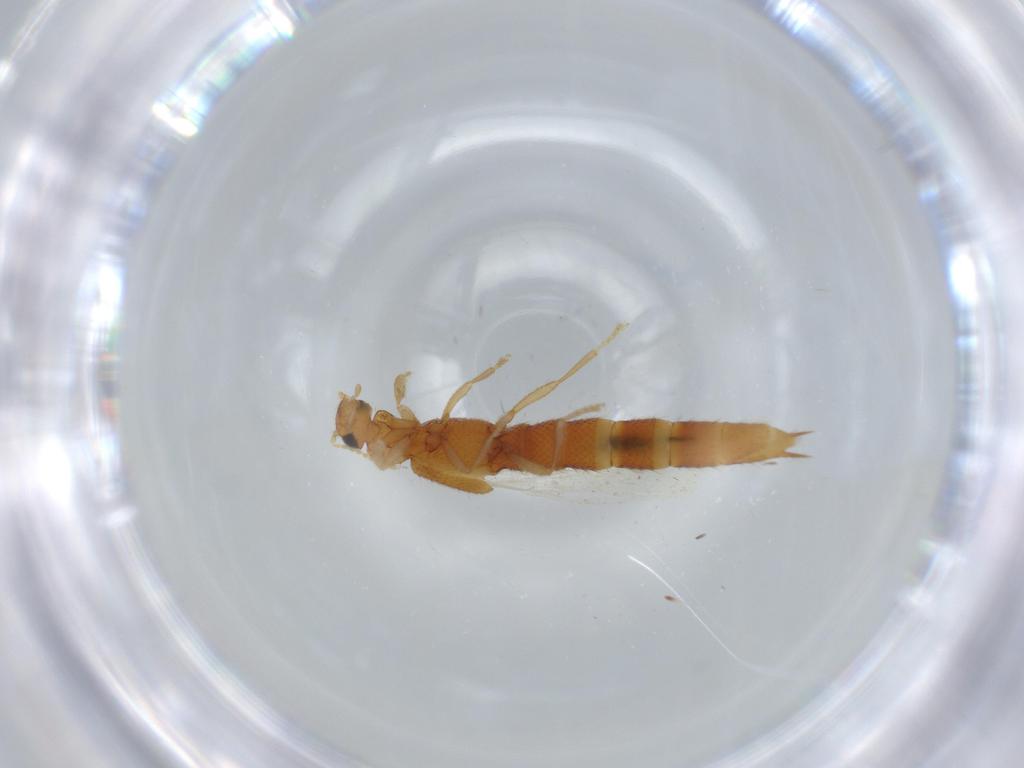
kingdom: Animalia
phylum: Arthropoda
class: Insecta
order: Coleoptera
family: Staphylinidae
